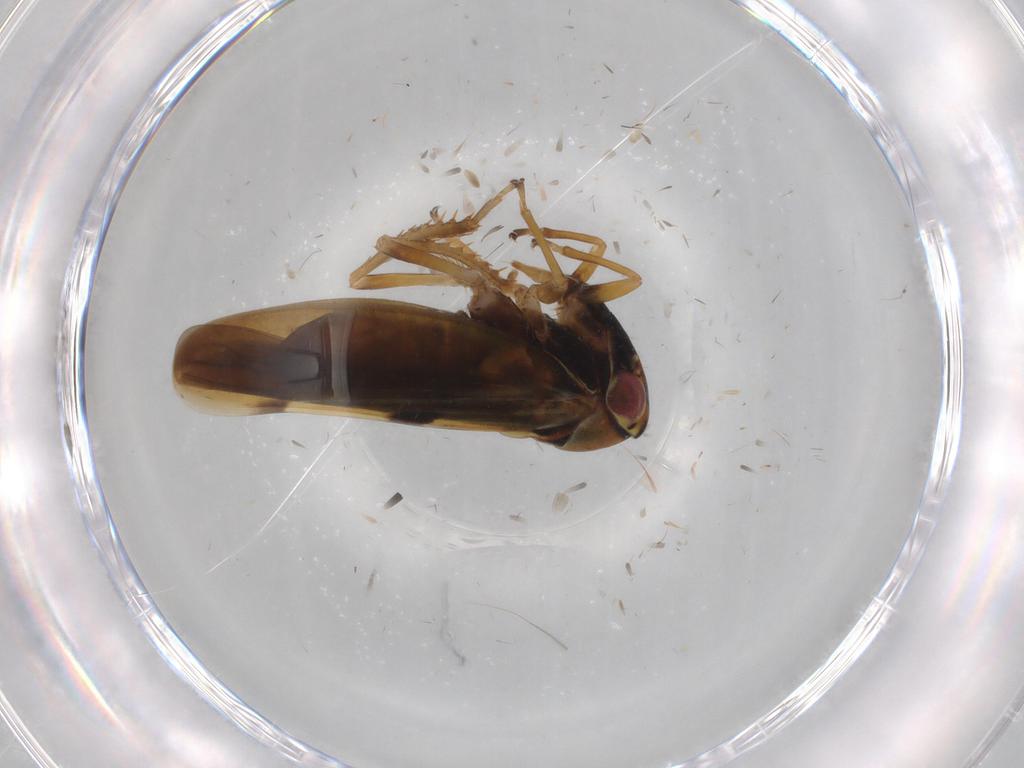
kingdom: Animalia
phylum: Arthropoda
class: Insecta
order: Hemiptera
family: Cicadellidae
